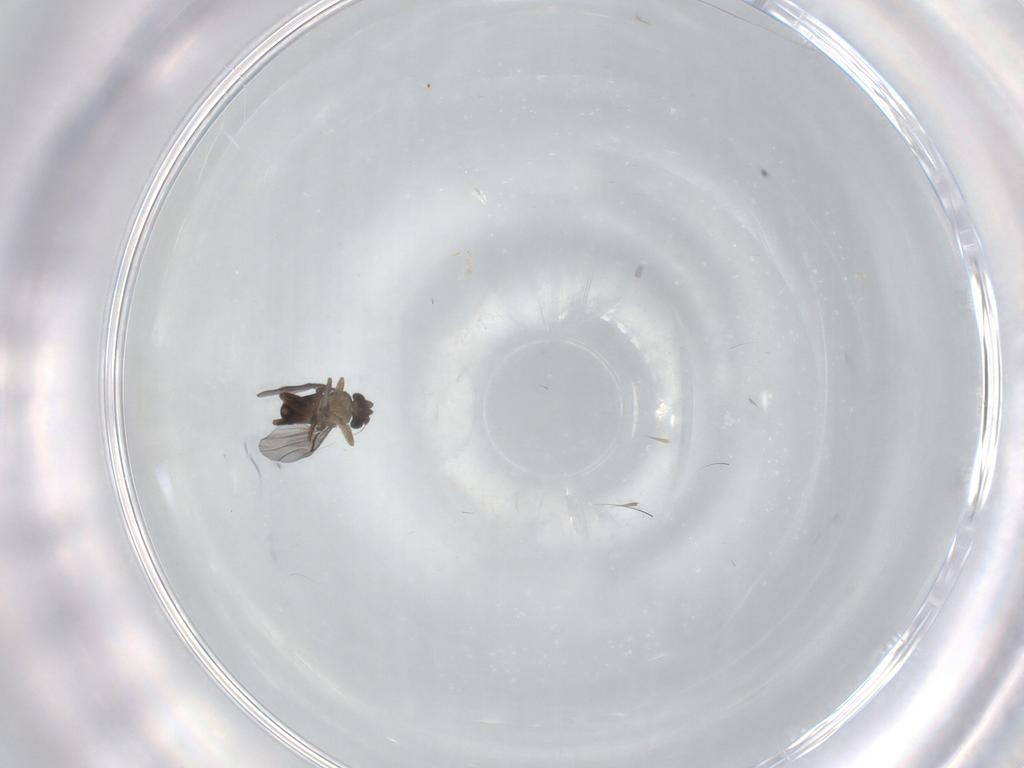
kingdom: Animalia
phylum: Arthropoda
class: Insecta
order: Diptera
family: Phoridae
